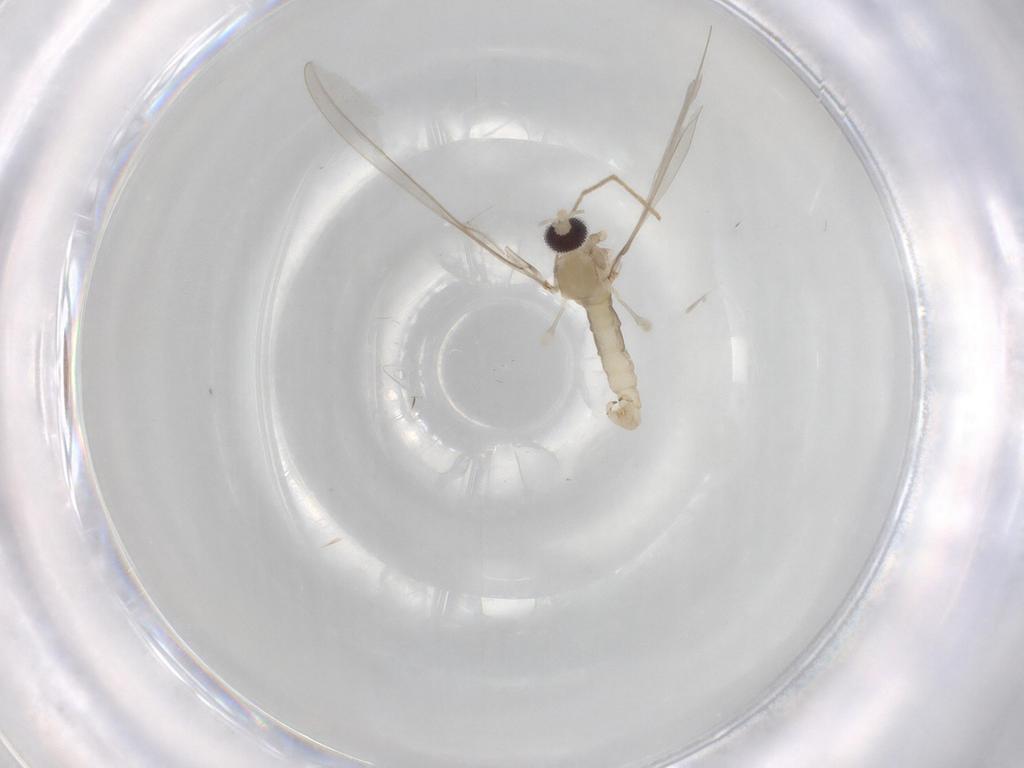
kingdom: Animalia
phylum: Arthropoda
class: Insecta
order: Diptera
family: Cecidomyiidae
